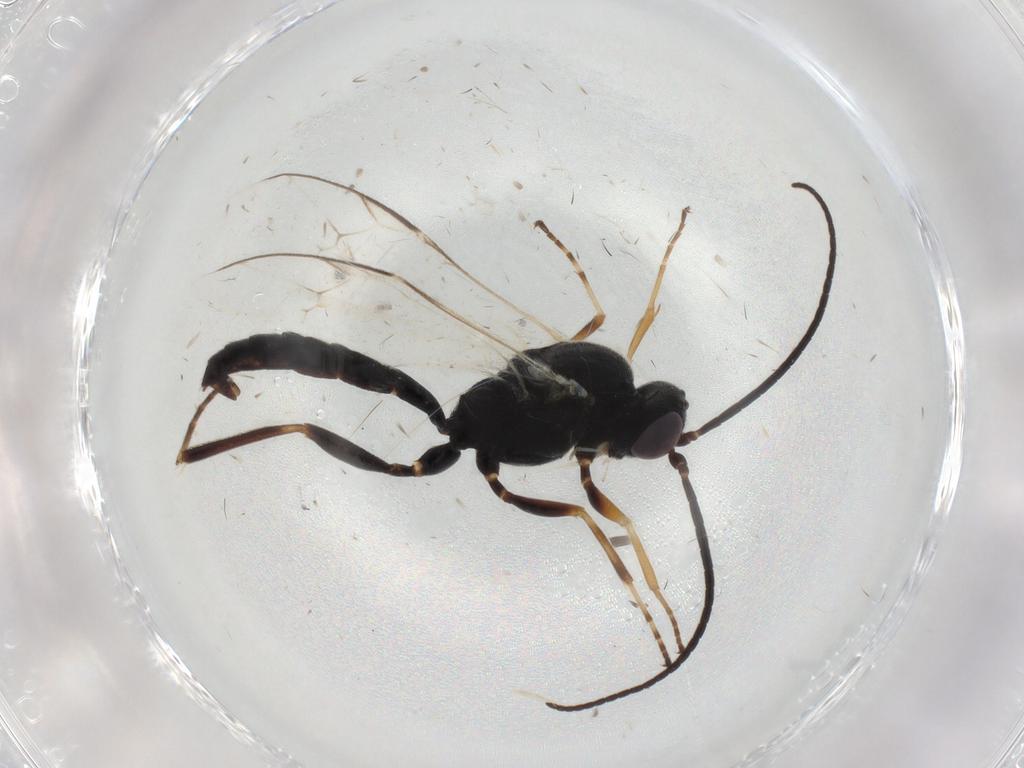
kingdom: Animalia
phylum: Arthropoda
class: Insecta
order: Hymenoptera
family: Ichneumonidae
